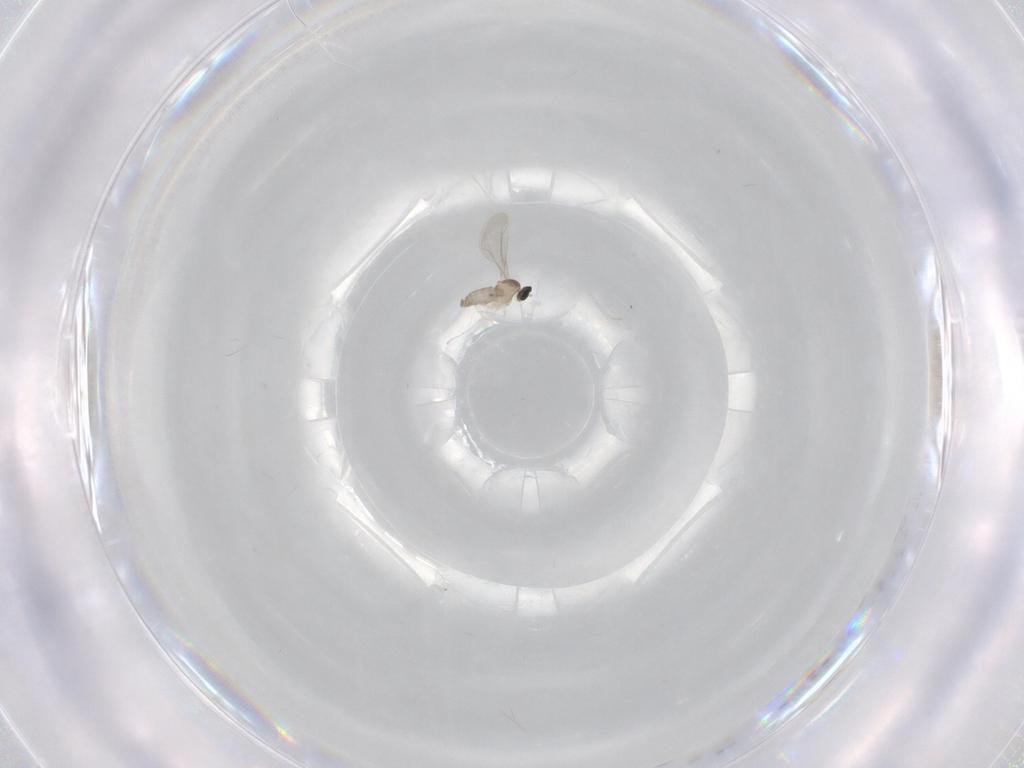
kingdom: Animalia
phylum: Arthropoda
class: Insecta
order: Diptera
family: Cecidomyiidae
